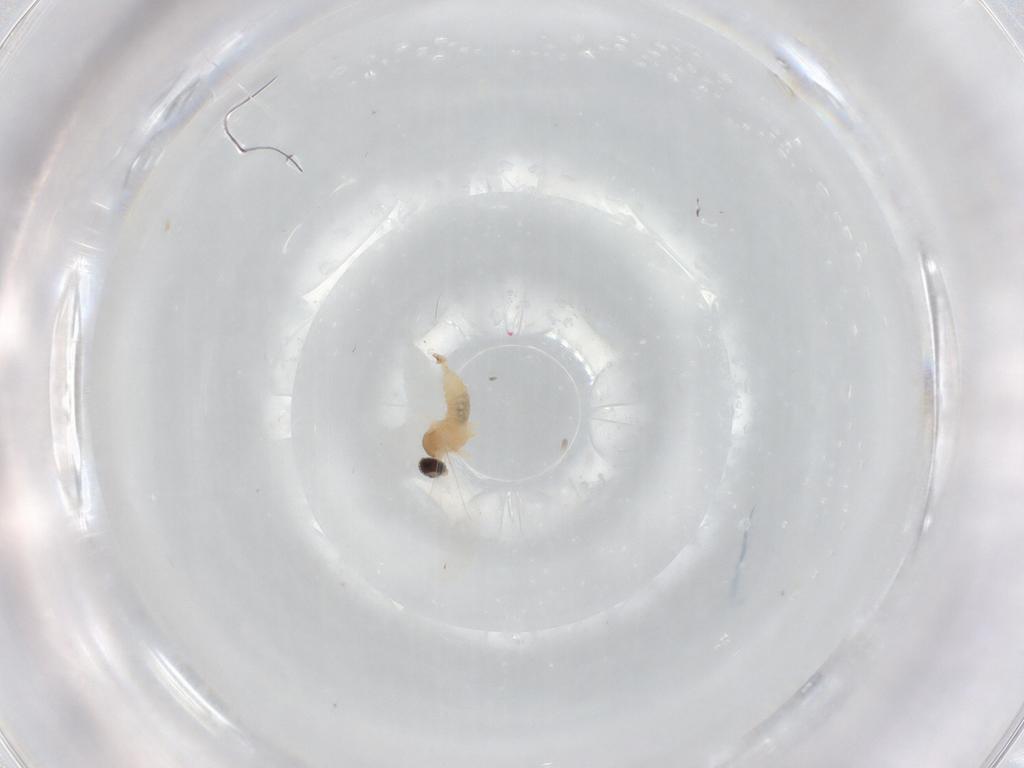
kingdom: Animalia
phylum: Arthropoda
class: Insecta
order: Diptera
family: Cecidomyiidae
